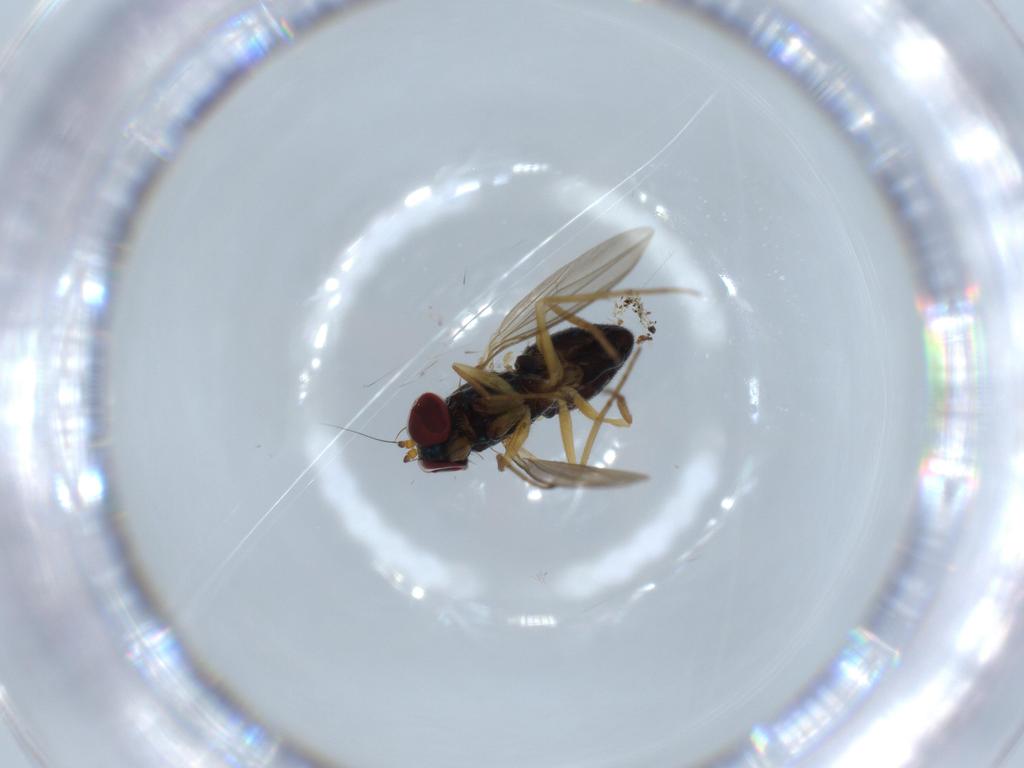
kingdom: Animalia
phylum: Arthropoda
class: Insecta
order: Diptera
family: Dolichopodidae
